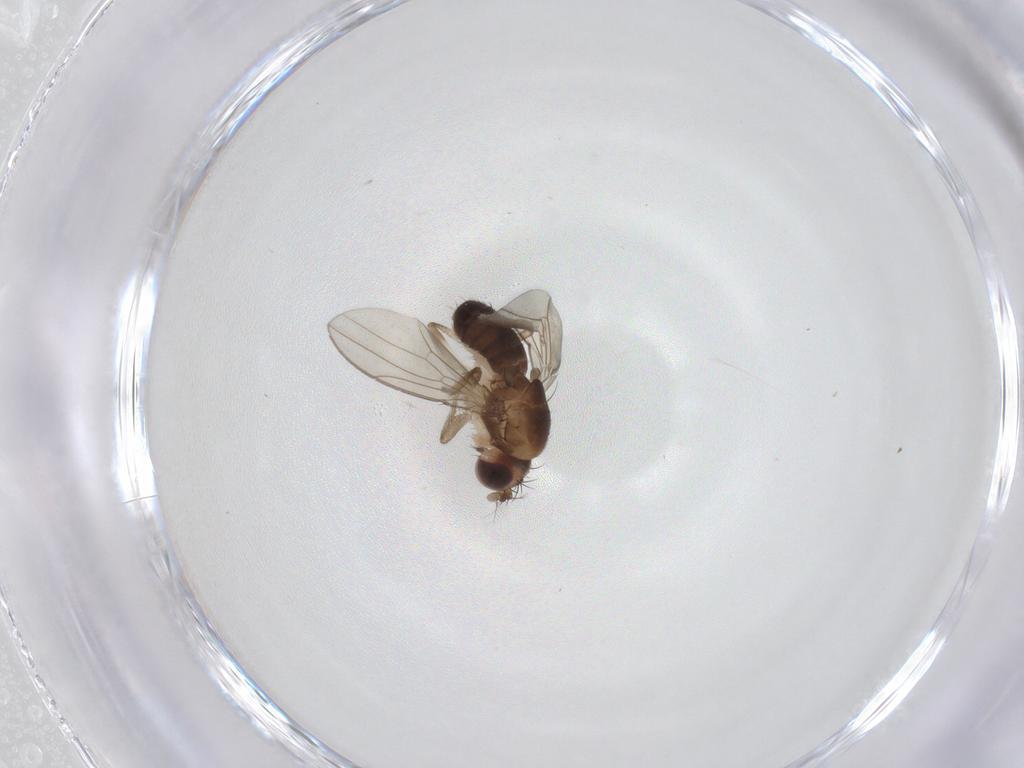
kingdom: Animalia
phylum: Arthropoda
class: Insecta
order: Diptera
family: Drosophilidae
